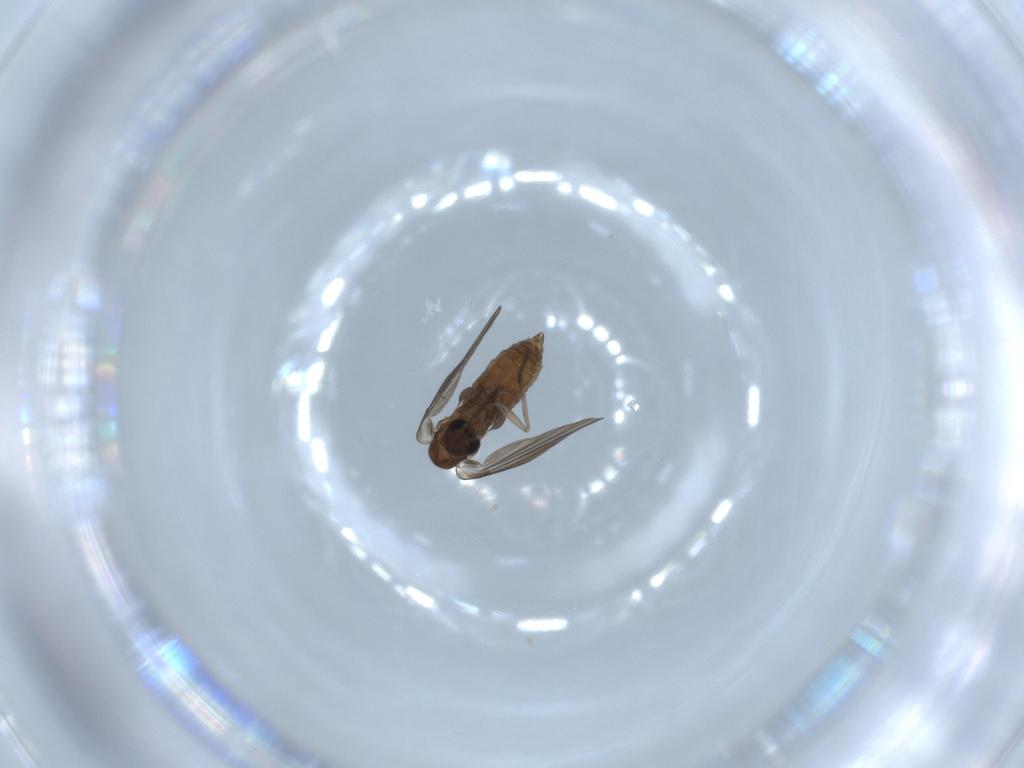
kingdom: Animalia
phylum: Arthropoda
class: Insecta
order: Diptera
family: Psychodidae
